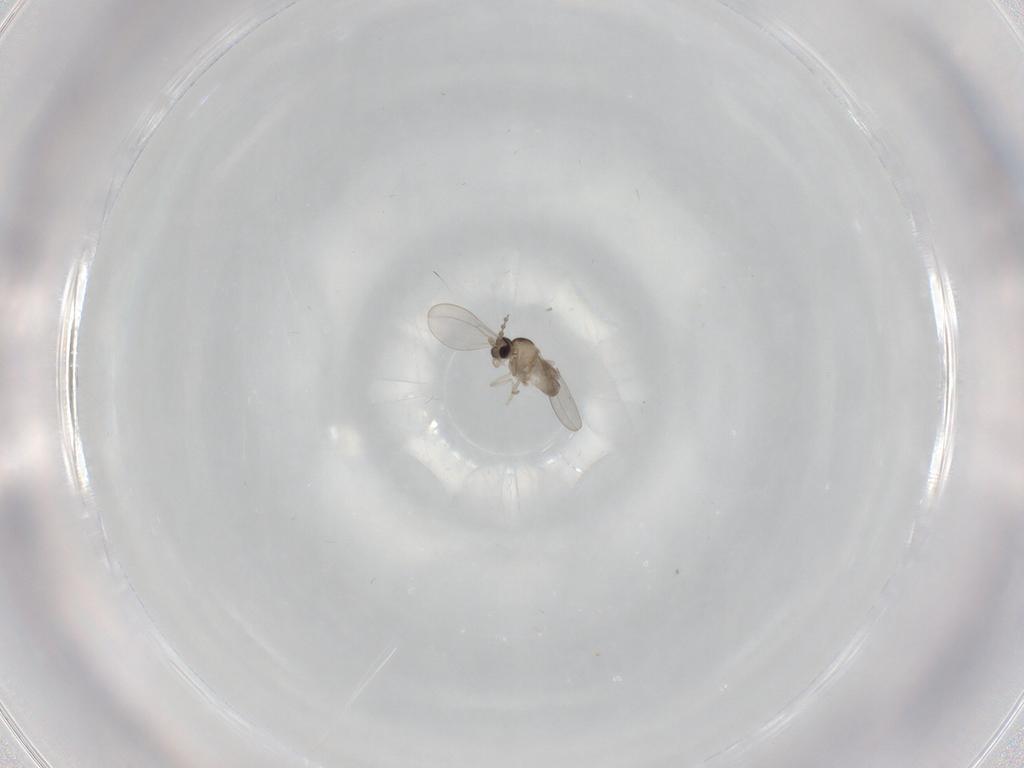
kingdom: Animalia
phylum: Arthropoda
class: Insecta
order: Diptera
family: Cecidomyiidae
